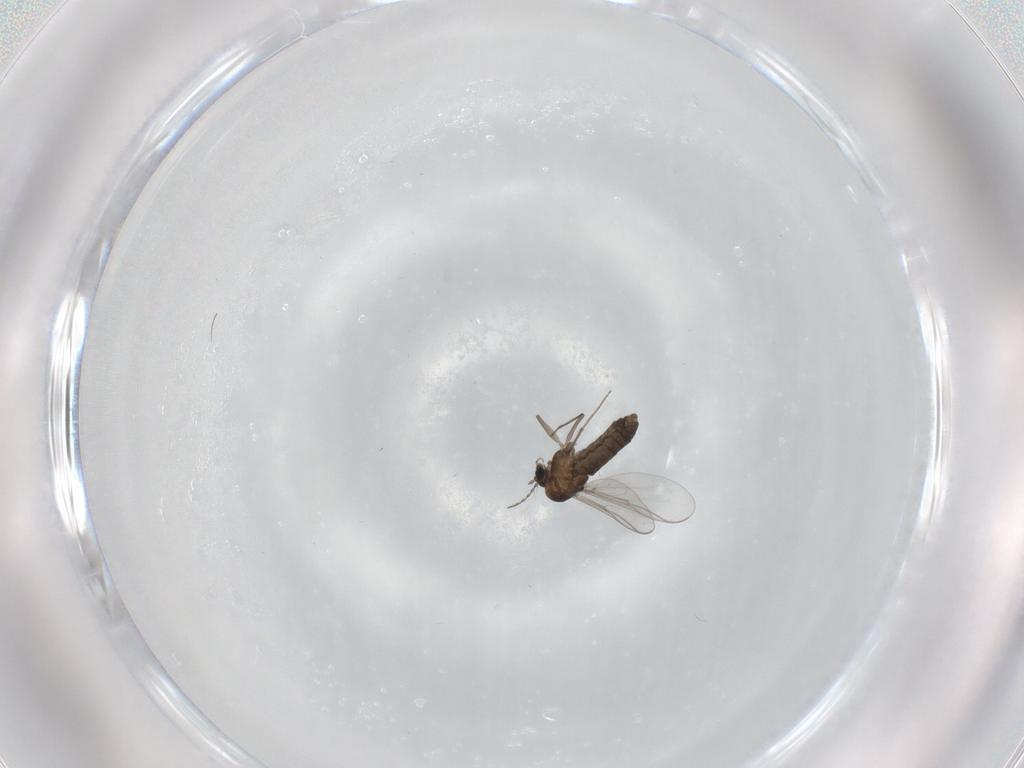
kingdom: Animalia
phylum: Arthropoda
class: Insecta
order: Diptera
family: Chironomidae
